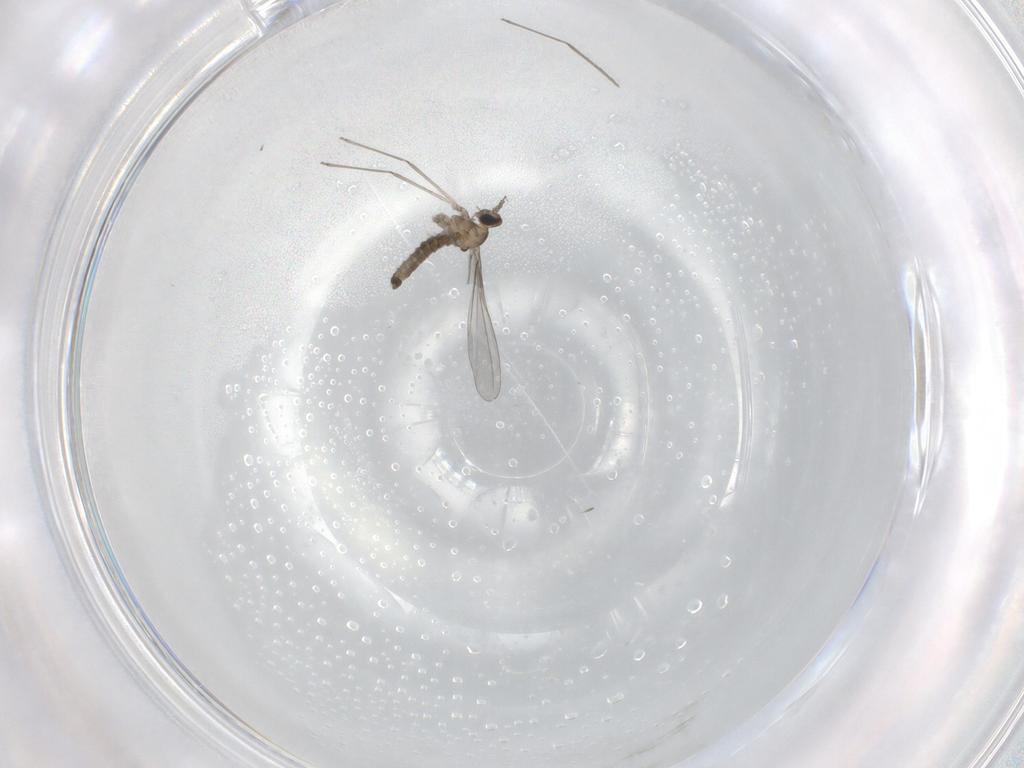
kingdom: Animalia
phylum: Arthropoda
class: Insecta
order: Diptera
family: Cecidomyiidae
